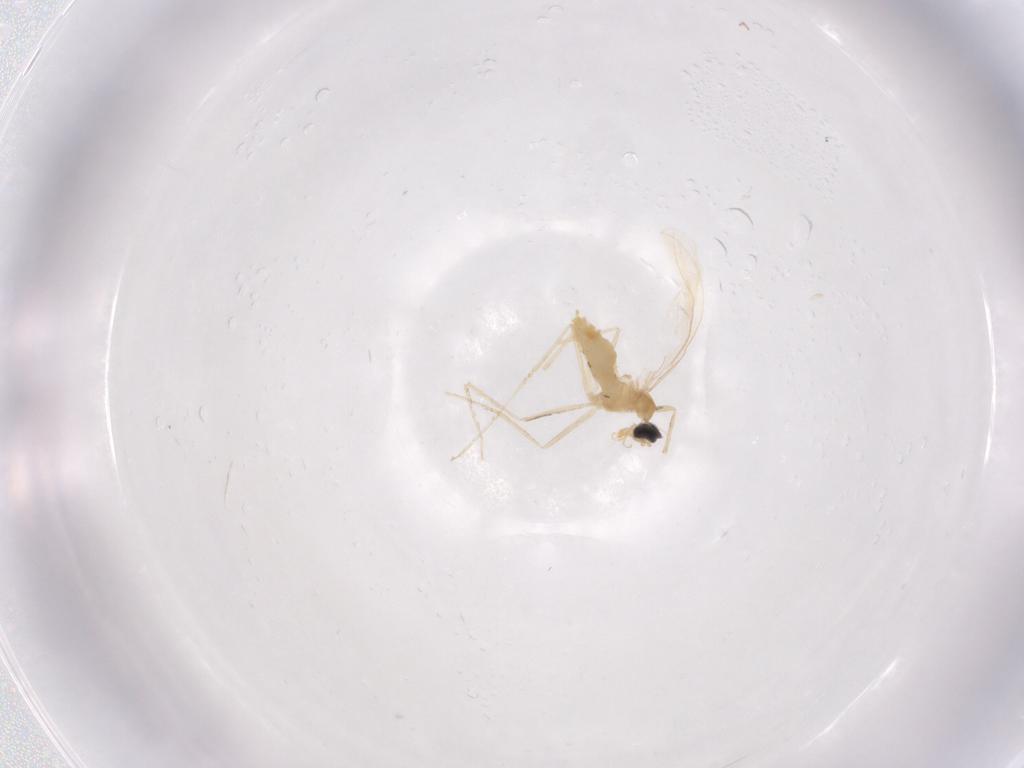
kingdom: Animalia
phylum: Arthropoda
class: Insecta
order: Diptera
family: Cecidomyiidae
